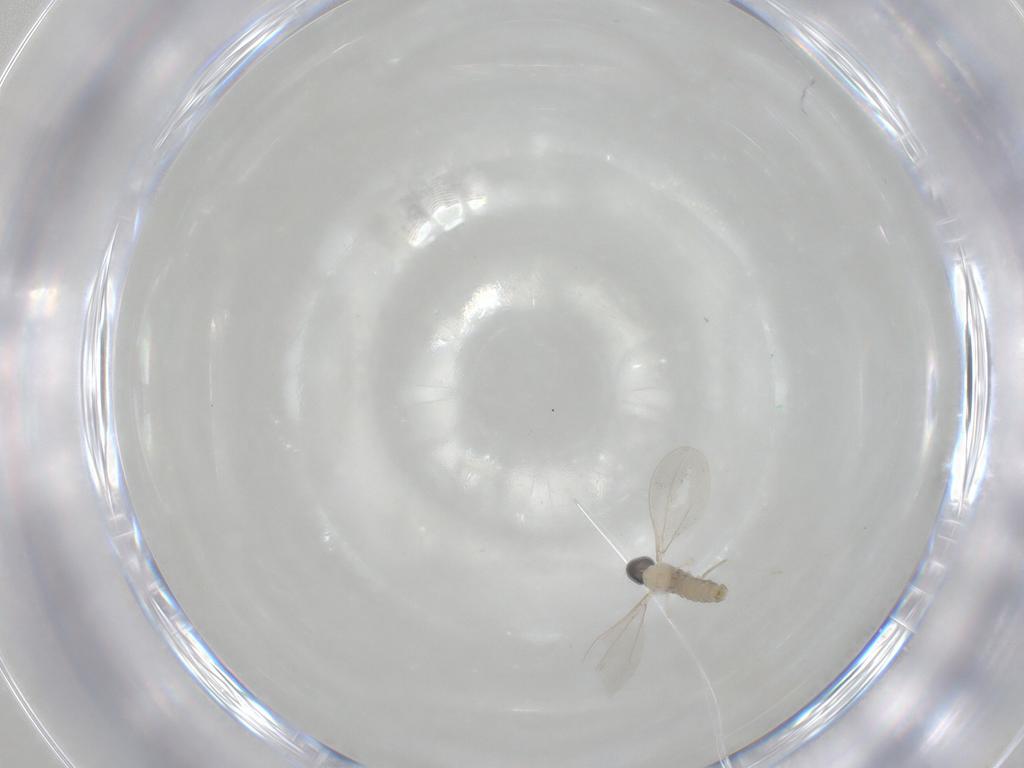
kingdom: Animalia
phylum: Arthropoda
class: Insecta
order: Diptera
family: Cecidomyiidae
